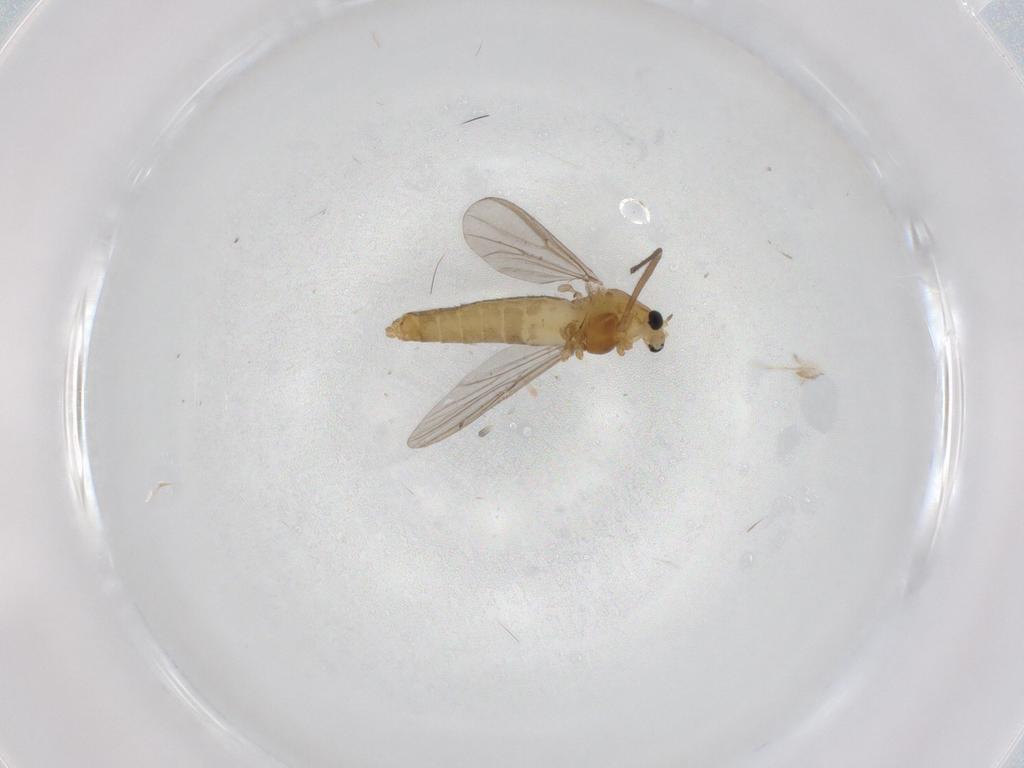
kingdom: Animalia
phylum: Arthropoda
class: Insecta
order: Diptera
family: Chironomidae
